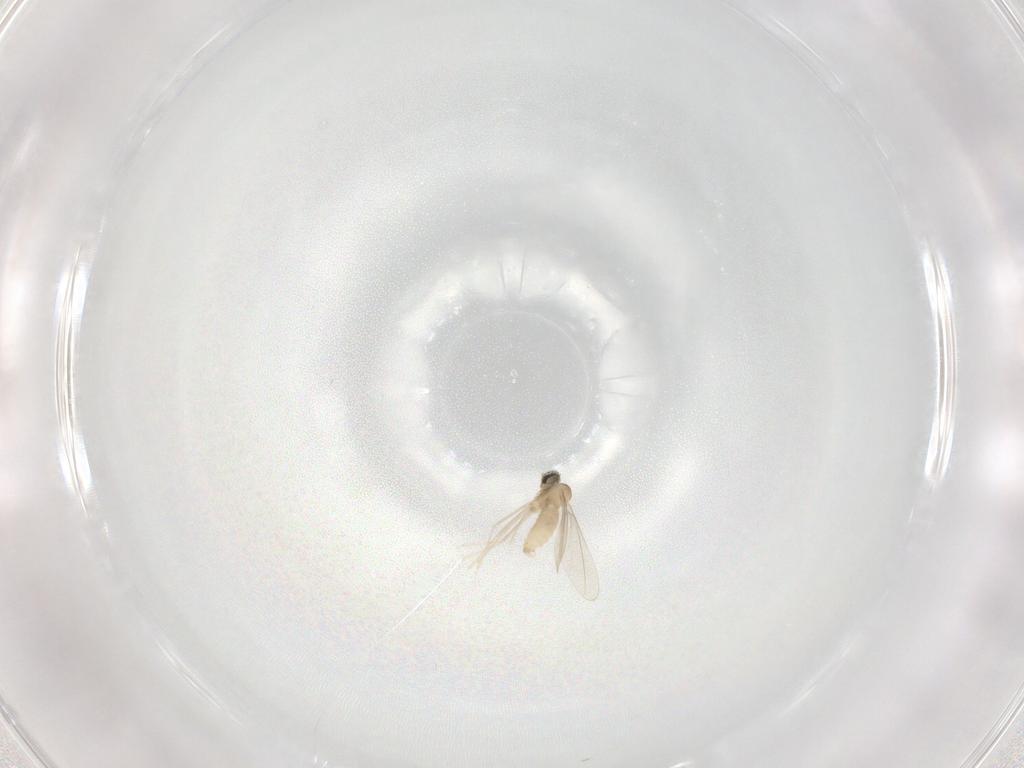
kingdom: Animalia
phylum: Arthropoda
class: Insecta
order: Diptera
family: Cecidomyiidae
